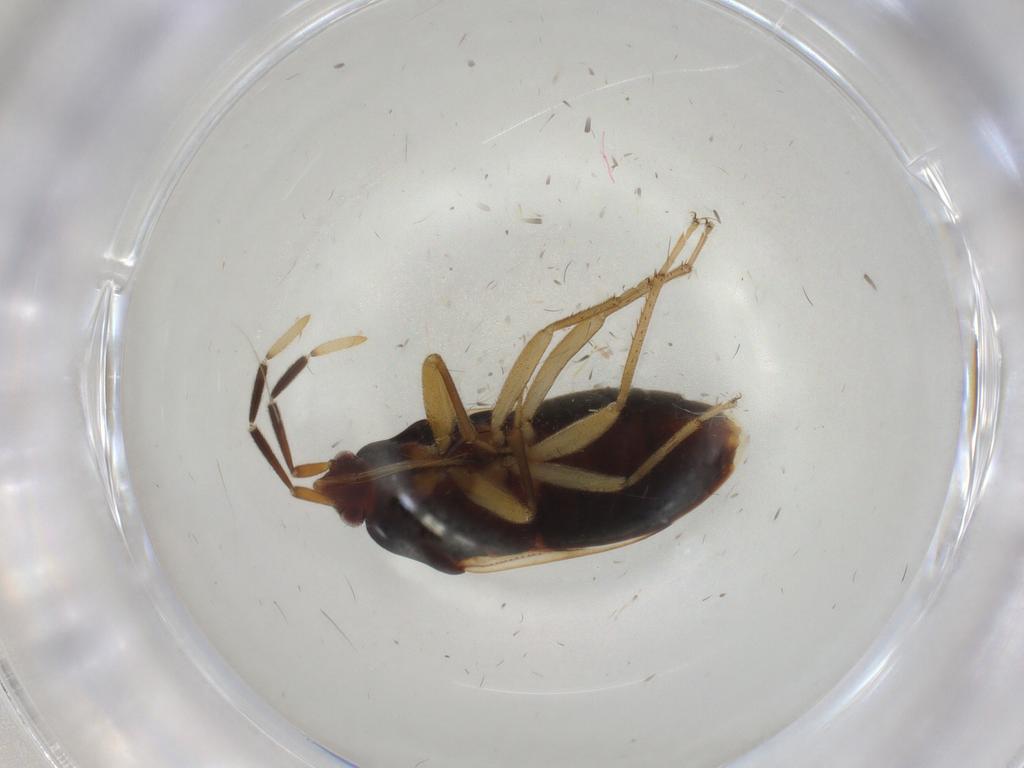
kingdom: Animalia
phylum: Arthropoda
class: Insecta
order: Hemiptera
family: Rhyparochromidae
